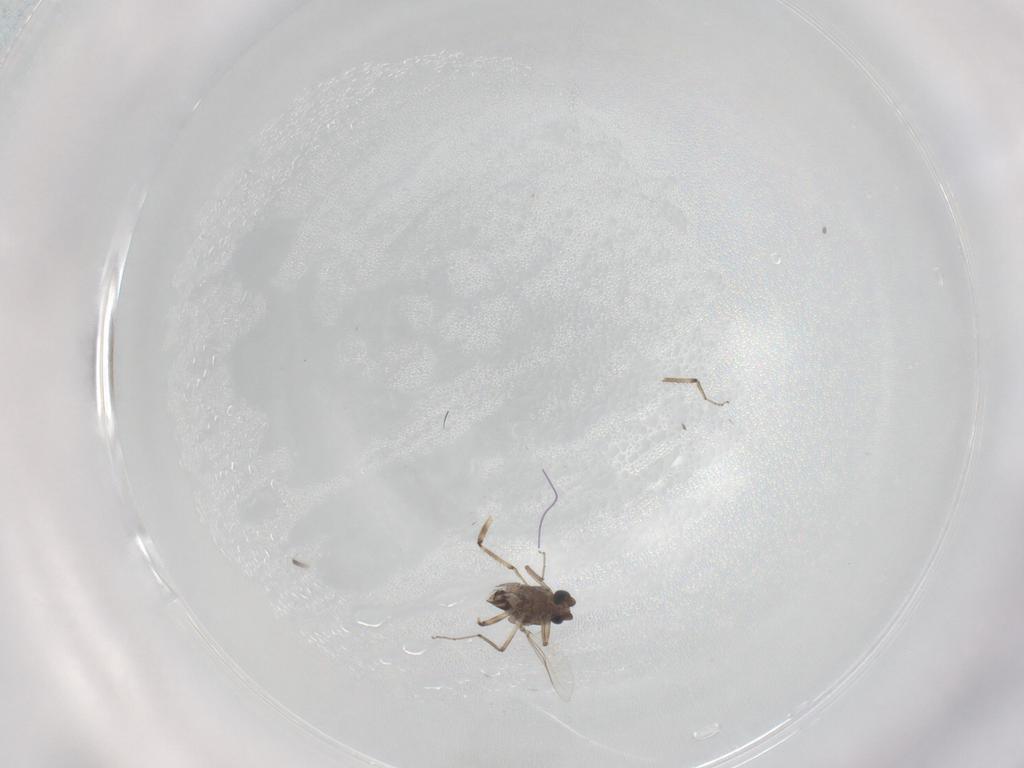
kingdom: Animalia
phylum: Arthropoda
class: Insecta
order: Diptera
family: Ceratopogonidae
